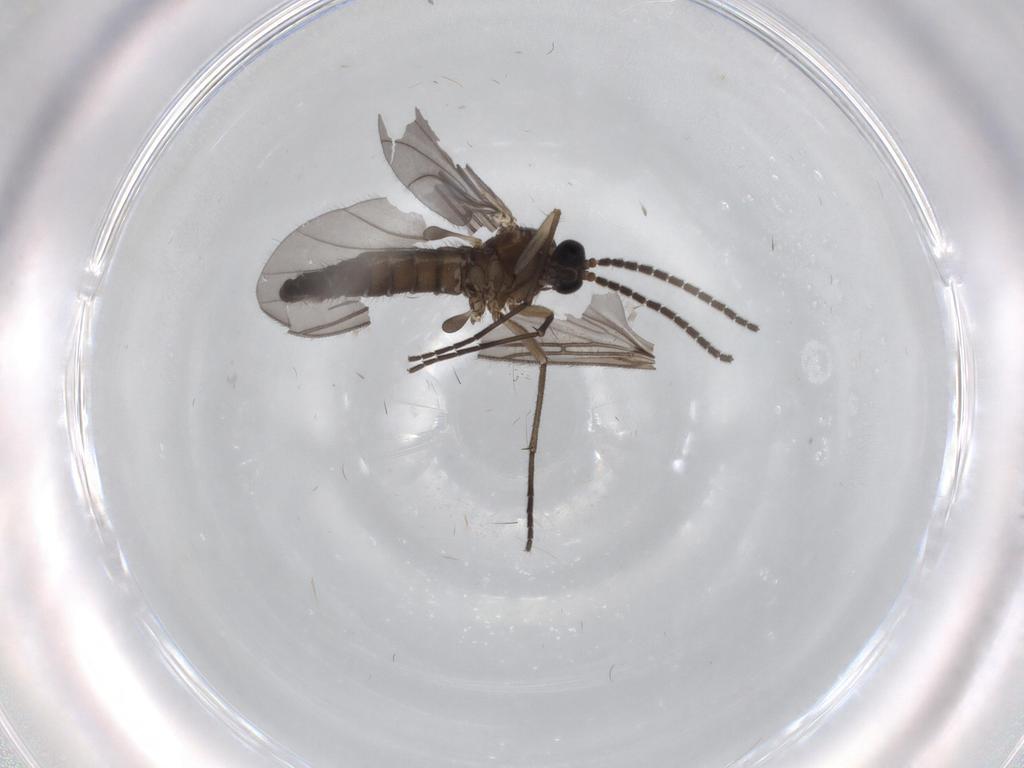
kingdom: Animalia
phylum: Arthropoda
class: Insecta
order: Diptera
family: Sciaridae
